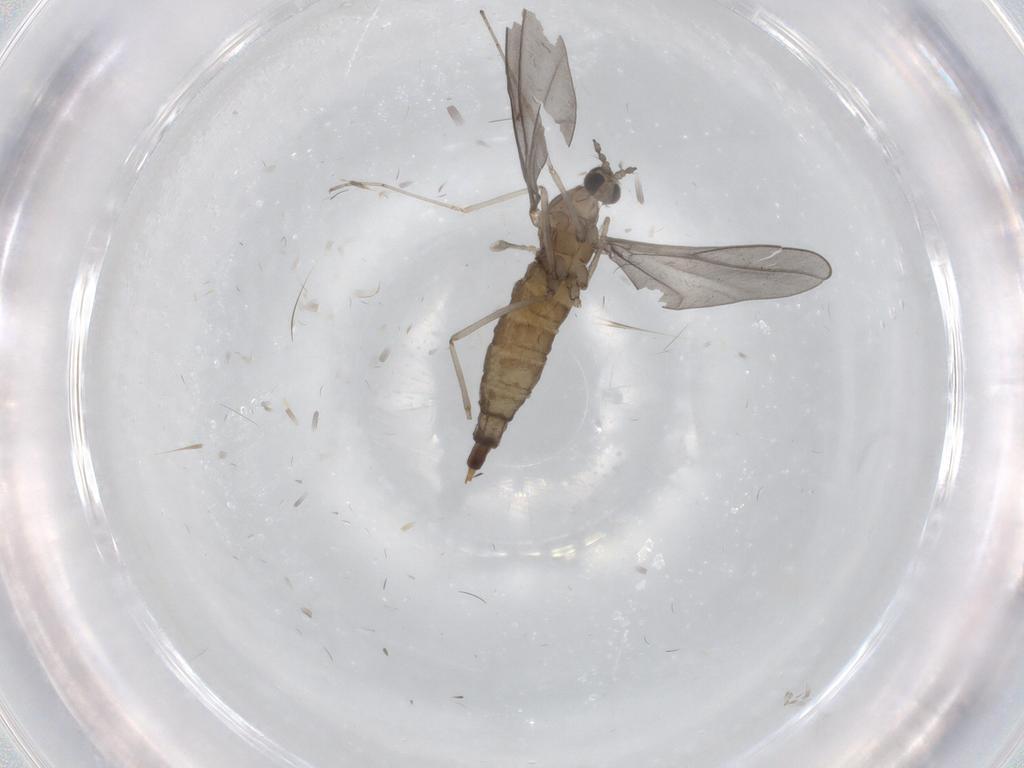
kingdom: Animalia
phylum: Arthropoda
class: Insecta
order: Diptera
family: Cecidomyiidae
